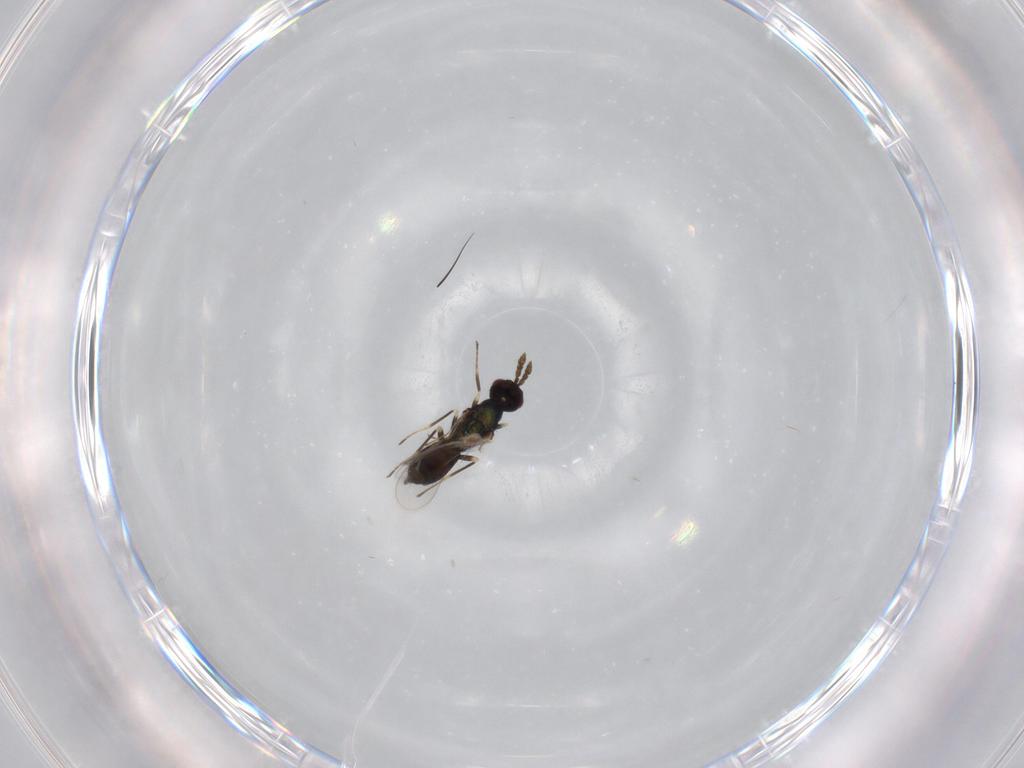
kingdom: Animalia
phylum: Arthropoda
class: Insecta
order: Hymenoptera
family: Eulophidae
